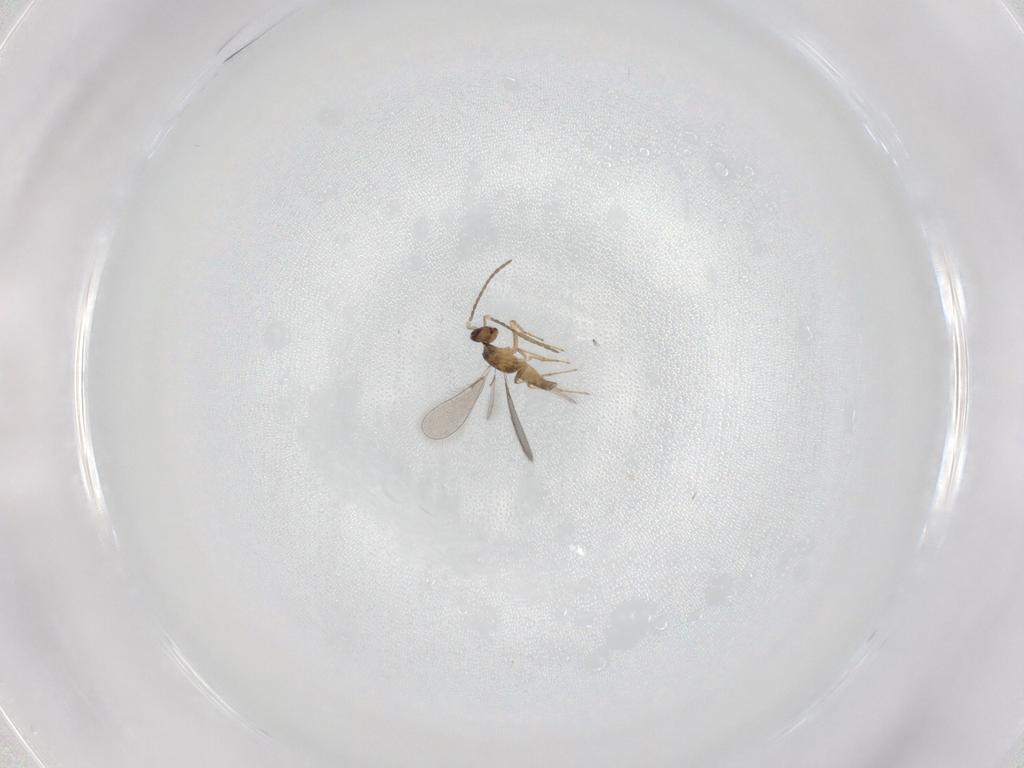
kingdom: Animalia
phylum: Arthropoda
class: Insecta
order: Hymenoptera
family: Mymaridae
